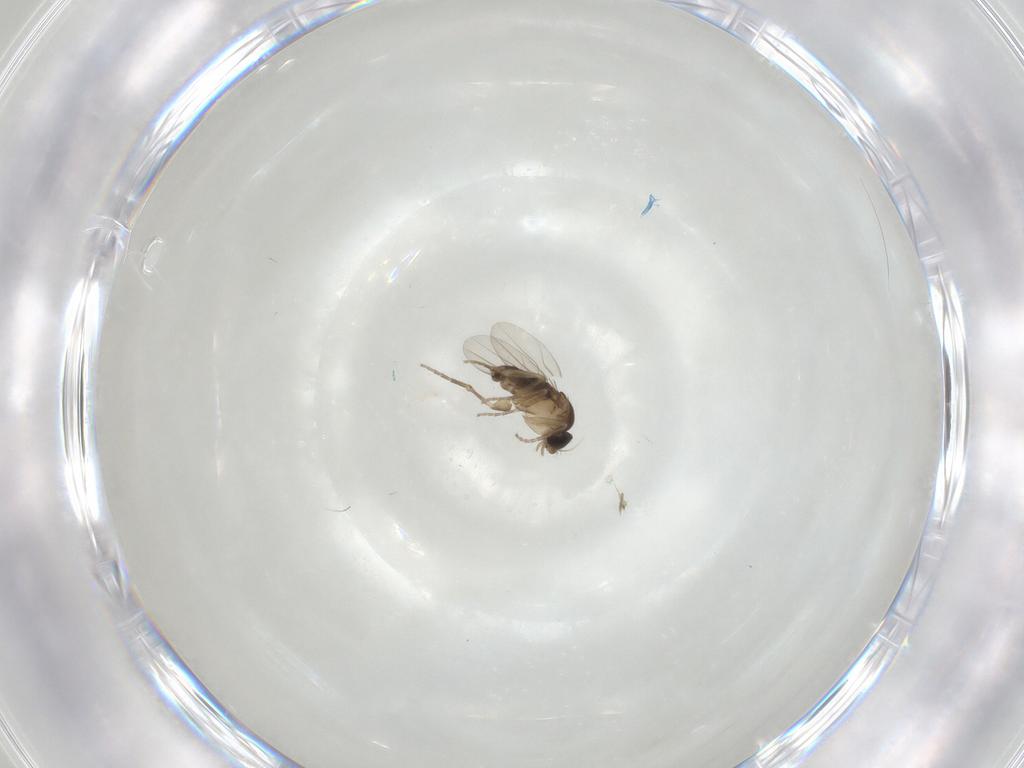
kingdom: Animalia
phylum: Arthropoda
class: Insecta
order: Diptera
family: Phoridae
